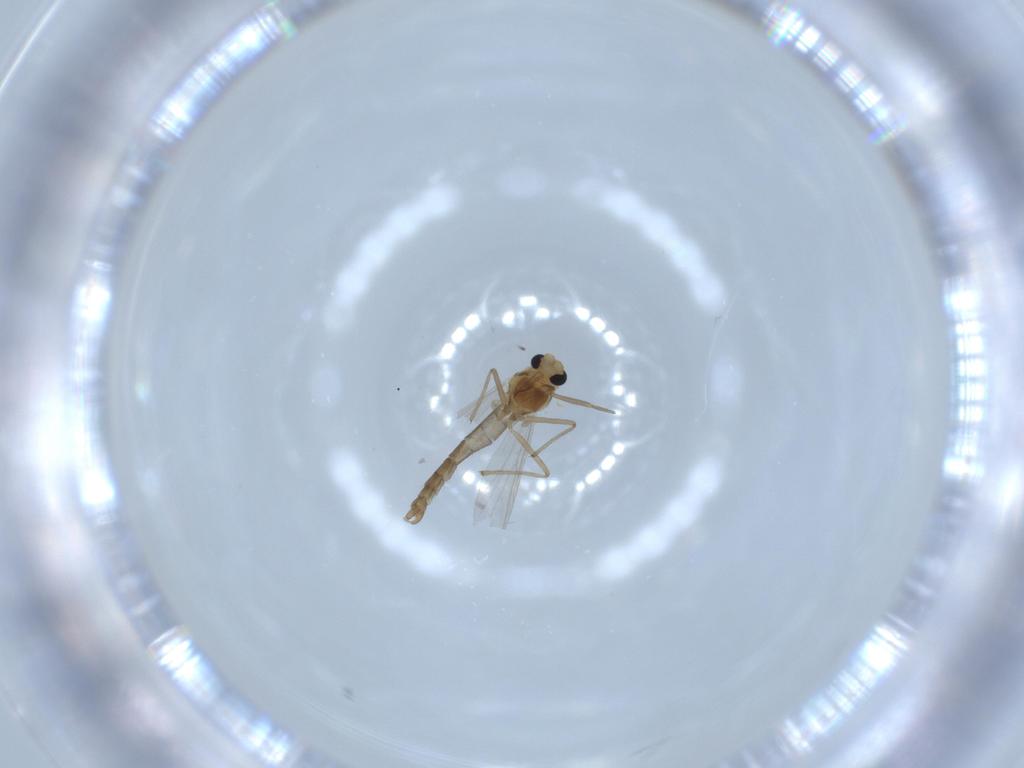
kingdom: Animalia
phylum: Arthropoda
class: Insecta
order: Diptera
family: Chironomidae
